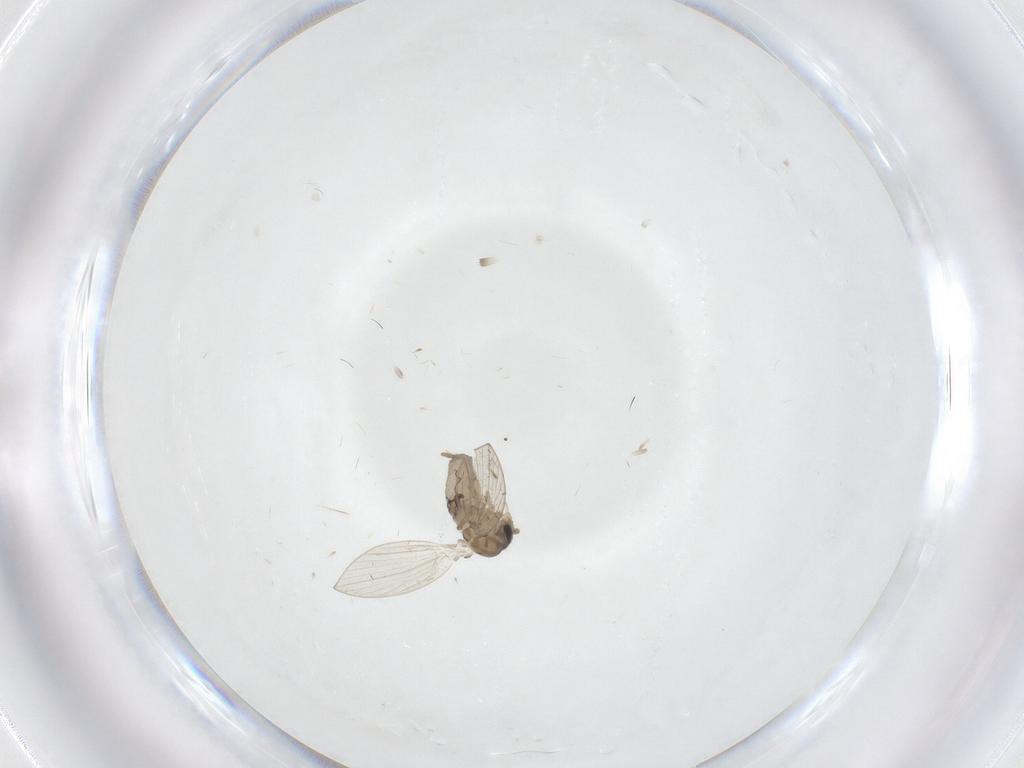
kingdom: Animalia
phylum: Arthropoda
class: Insecta
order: Diptera
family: Psychodidae
